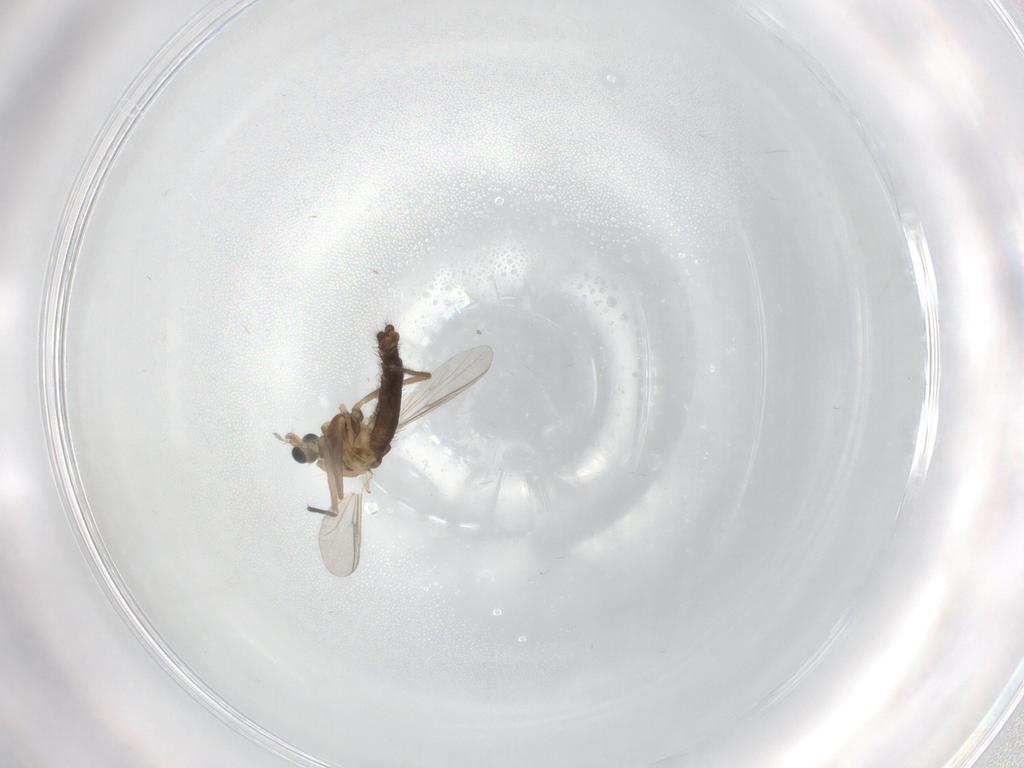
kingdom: Animalia
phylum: Arthropoda
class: Insecta
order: Diptera
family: Chironomidae
